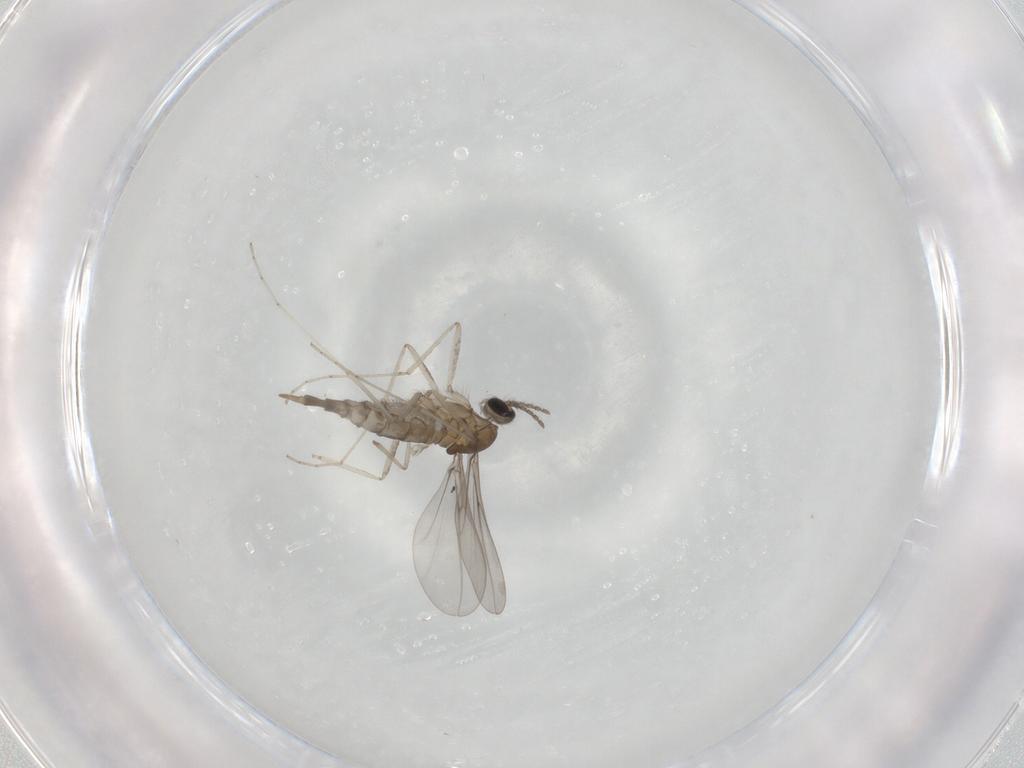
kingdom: Animalia
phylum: Arthropoda
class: Insecta
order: Diptera
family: Cecidomyiidae
